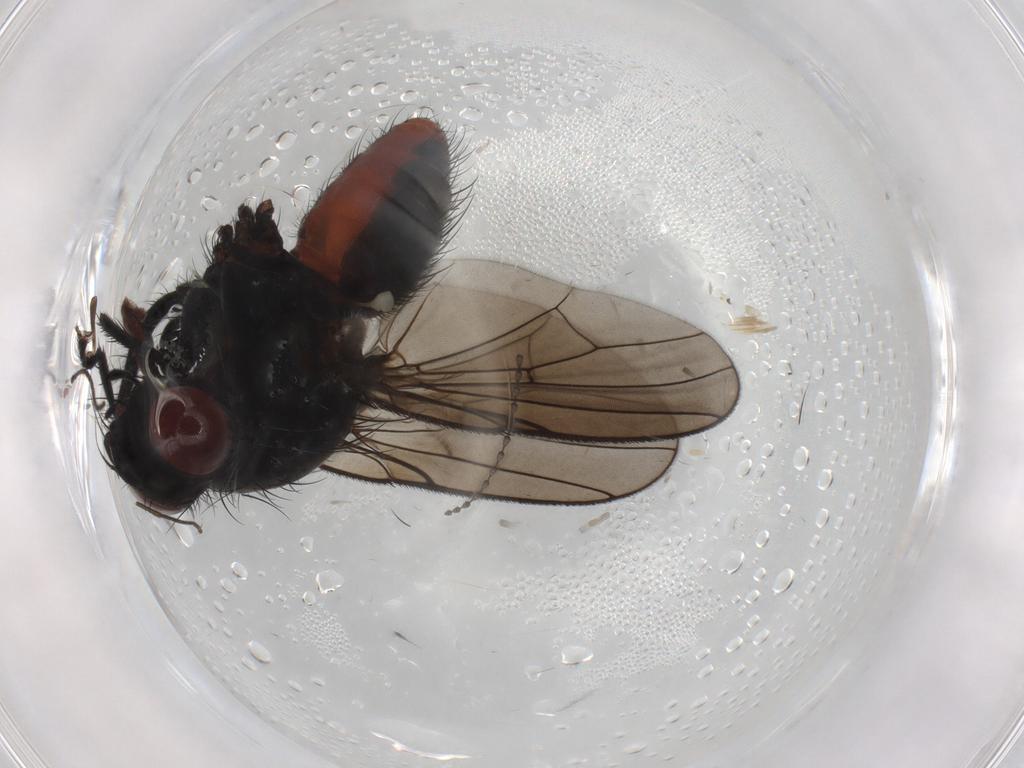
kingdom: Animalia
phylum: Arthropoda
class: Insecta
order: Diptera
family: Anthomyiidae
